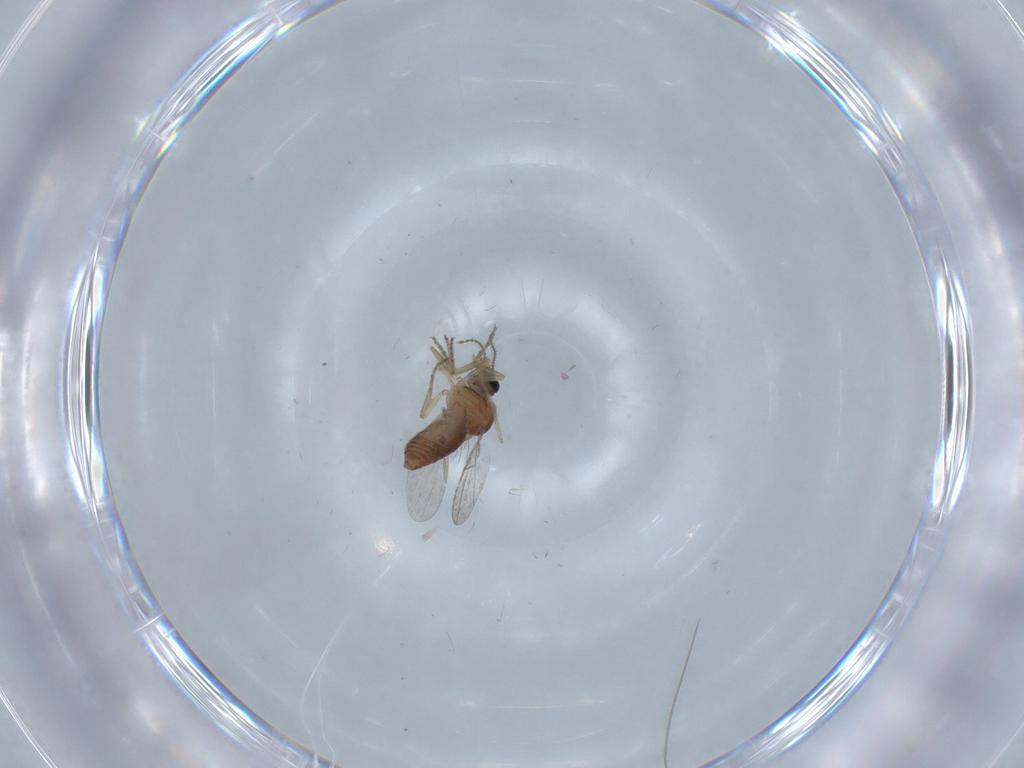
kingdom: Animalia
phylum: Arthropoda
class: Insecta
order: Diptera
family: Ceratopogonidae
